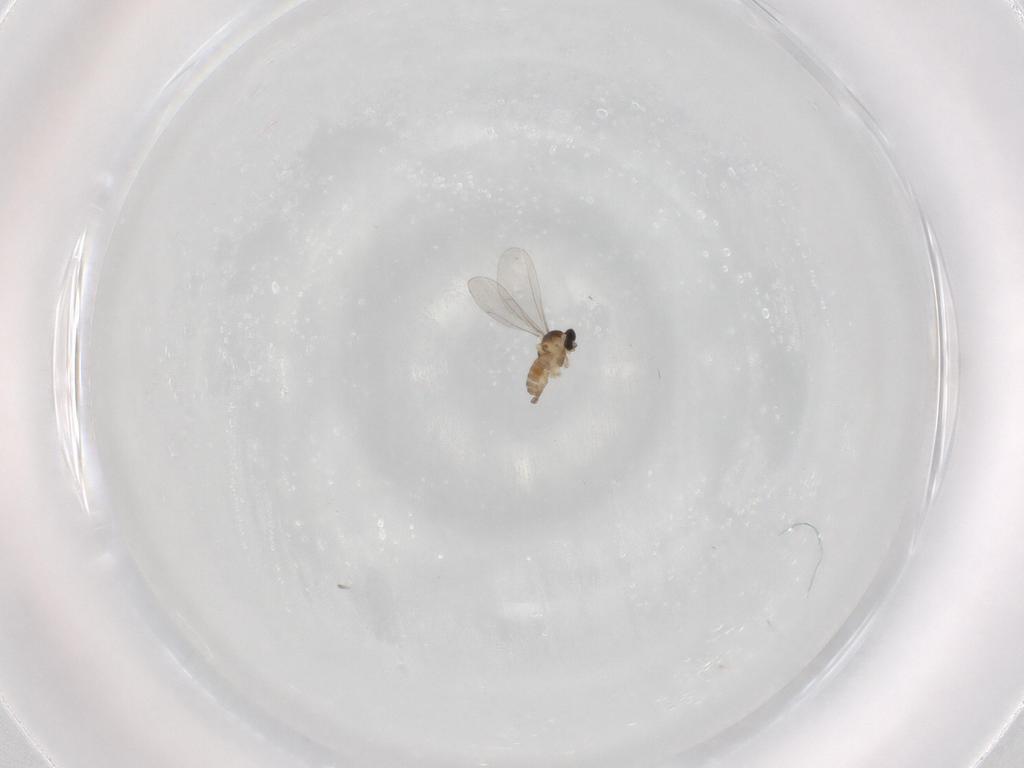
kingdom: Animalia
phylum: Arthropoda
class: Insecta
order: Diptera
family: Cecidomyiidae
